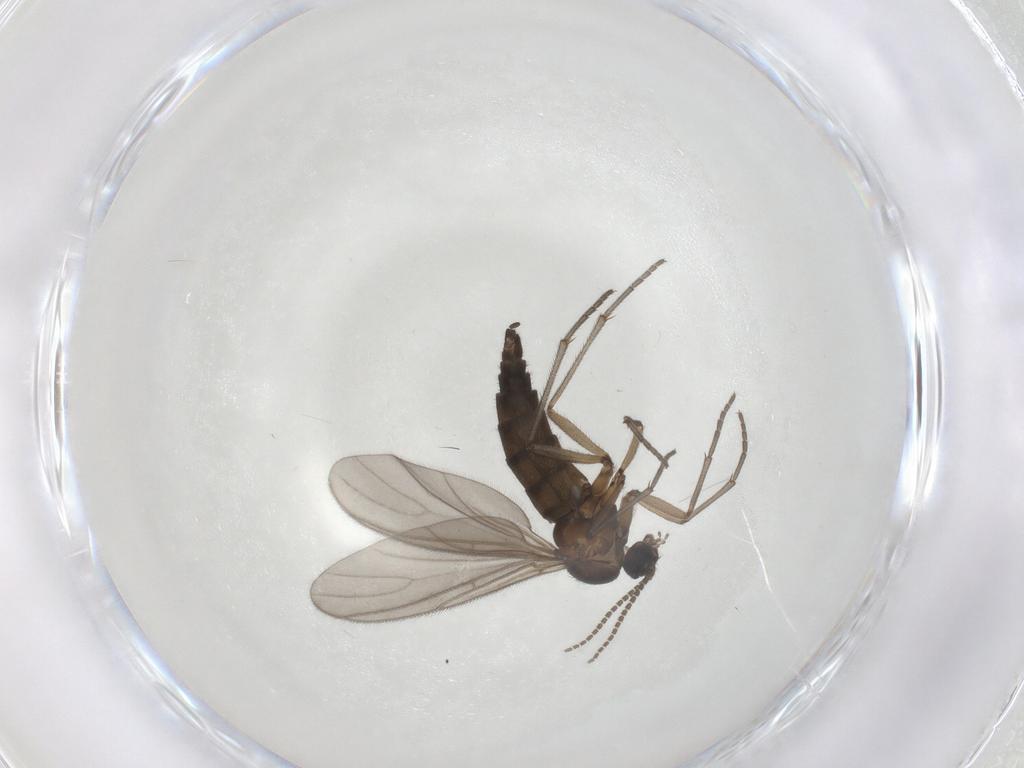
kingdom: Animalia
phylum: Arthropoda
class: Insecta
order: Diptera
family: Sciaridae
